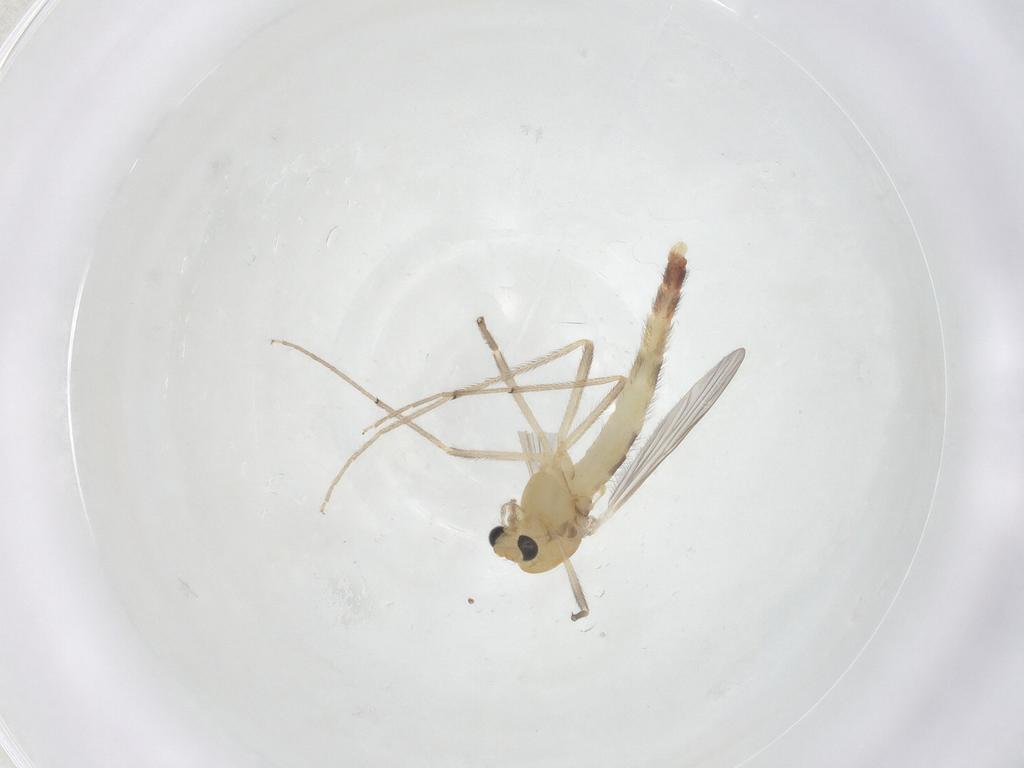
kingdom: Animalia
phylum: Arthropoda
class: Insecta
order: Diptera
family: Chironomidae
